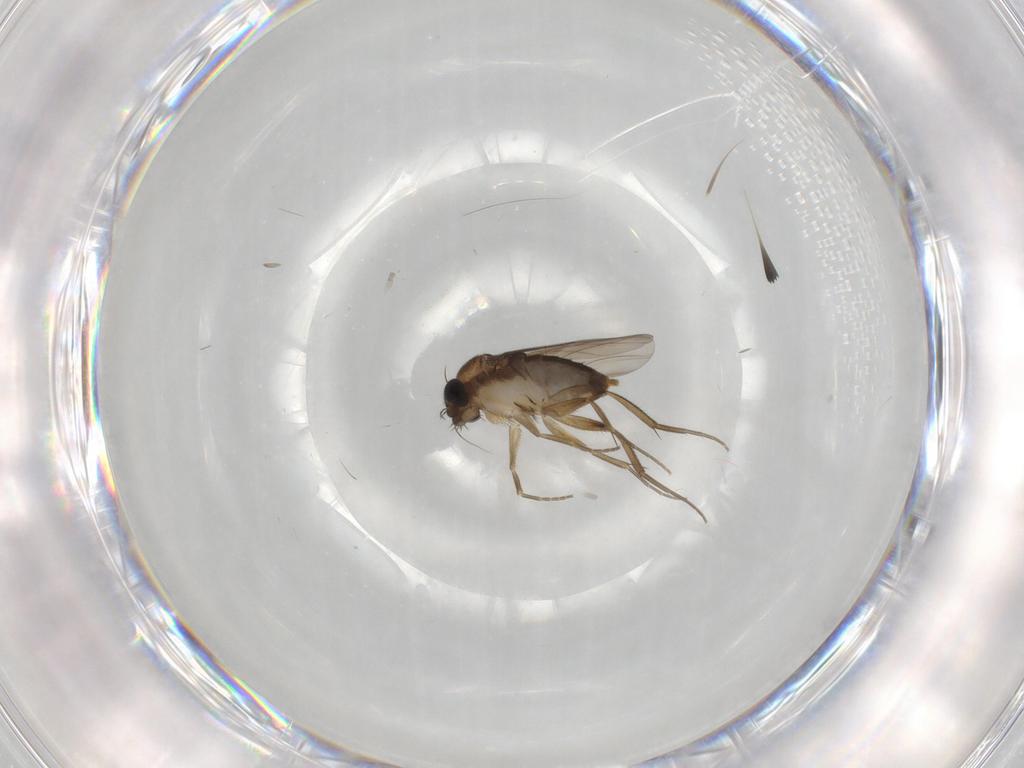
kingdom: Animalia
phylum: Arthropoda
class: Insecta
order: Diptera
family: Phoridae
